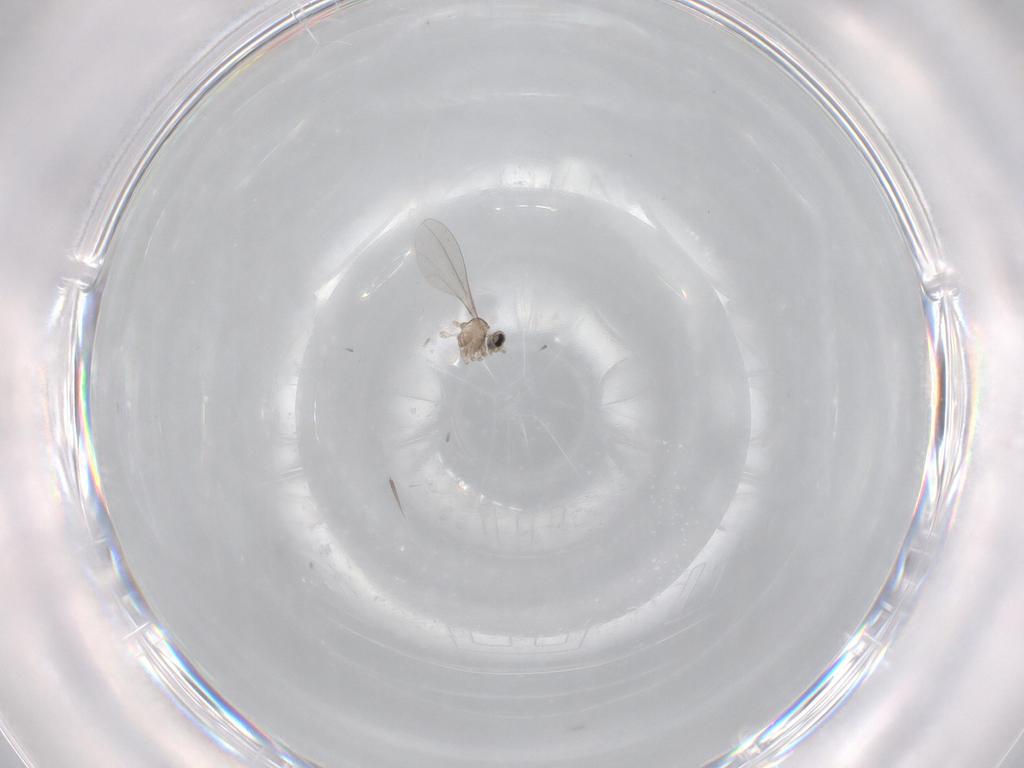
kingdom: Animalia
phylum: Arthropoda
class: Insecta
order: Diptera
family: Cecidomyiidae
